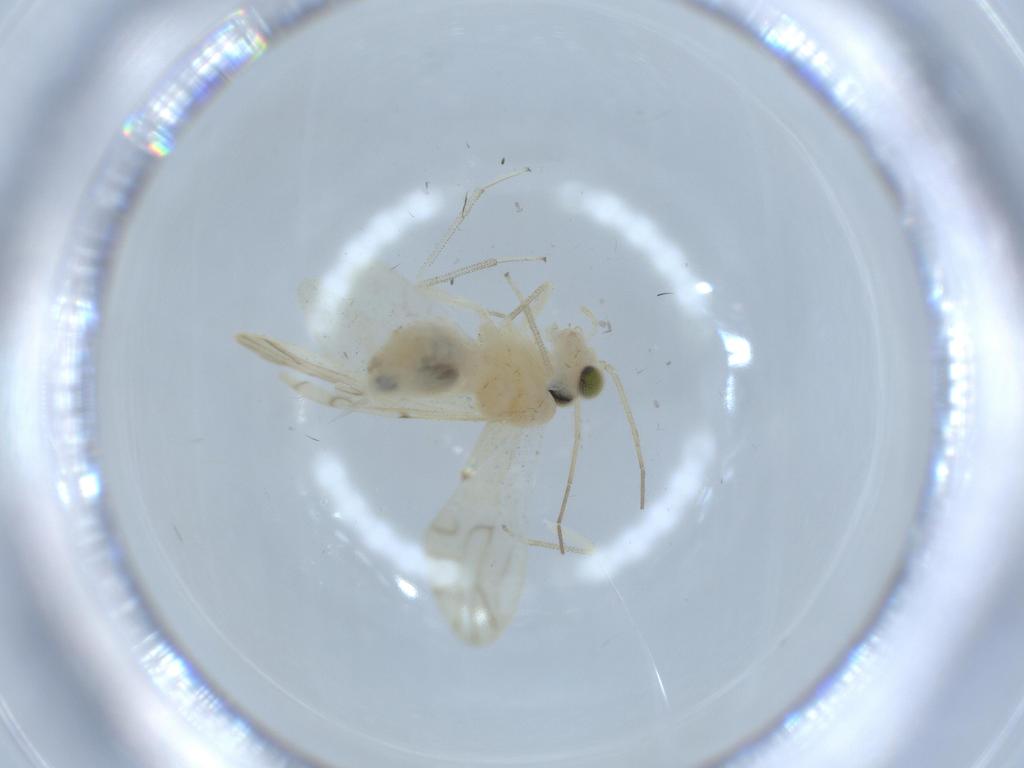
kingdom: Animalia
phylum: Arthropoda
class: Insecta
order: Psocodea
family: Caeciliusidae
